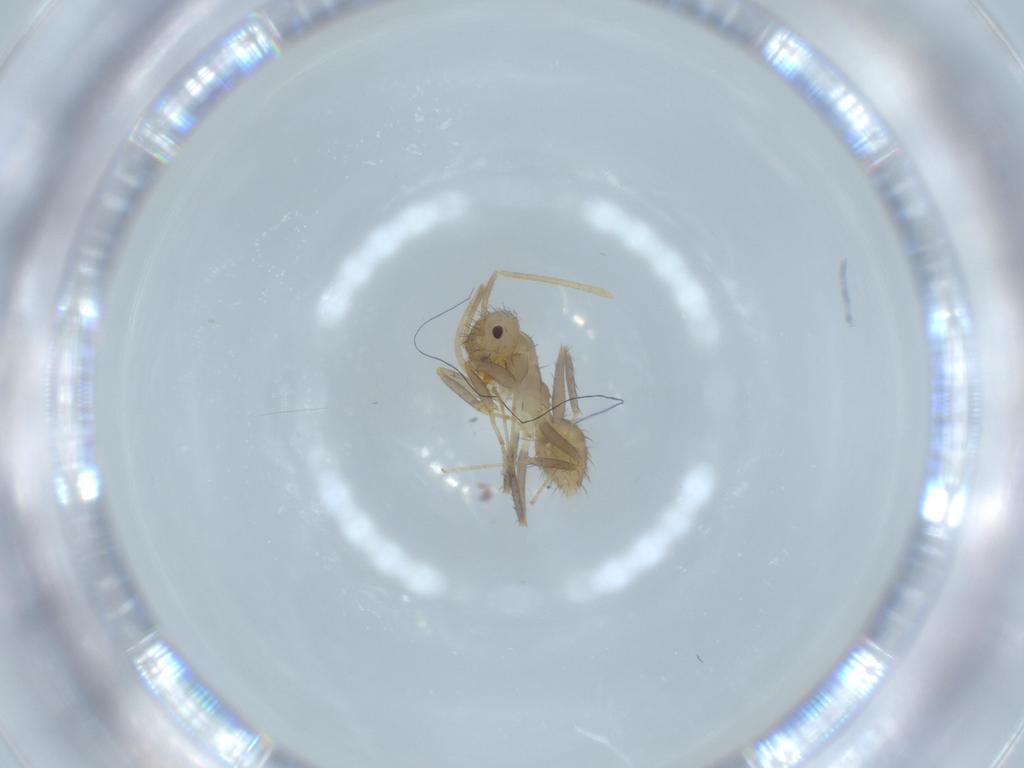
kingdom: Animalia
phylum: Arthropoda
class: Insecta
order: Hymenoptera
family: Formicidae
